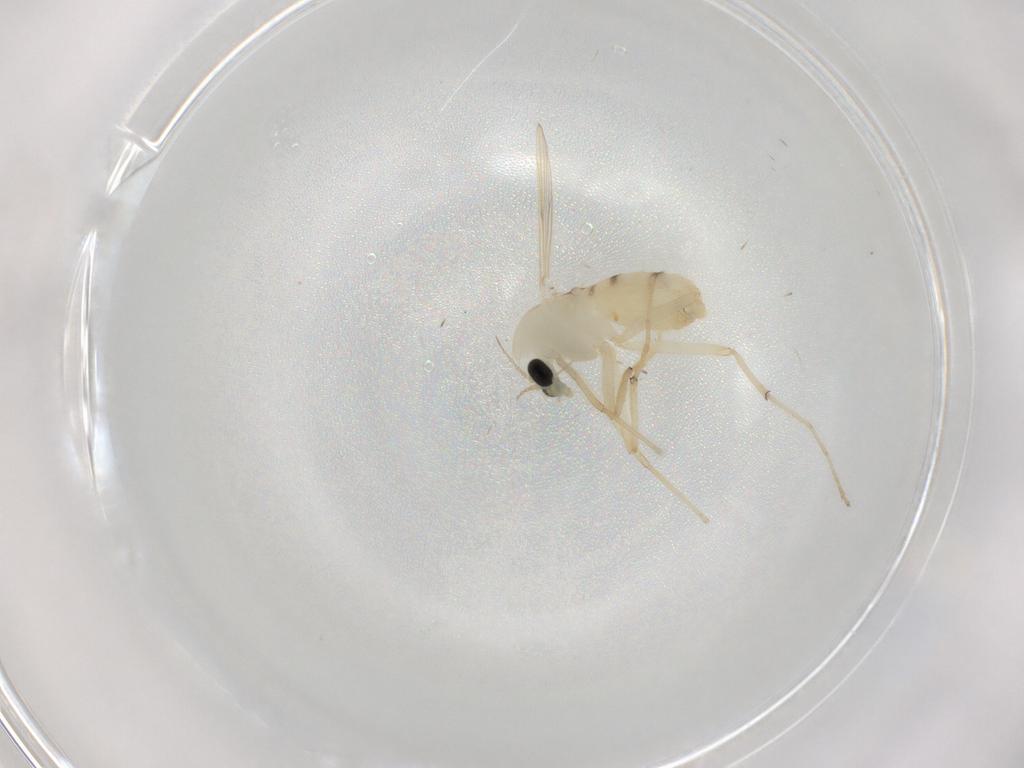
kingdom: Animalia
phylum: Arthropoda
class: Insecta
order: Diptera
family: Chironomidae
